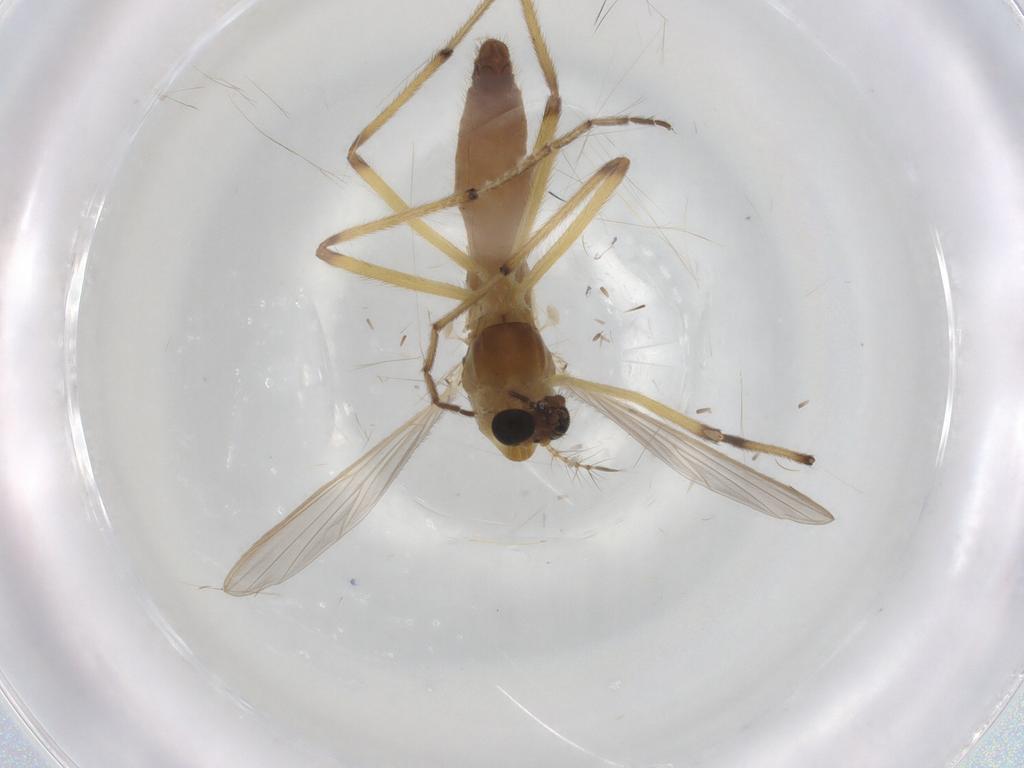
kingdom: Animalia
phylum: Arthropoda
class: Insecta
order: Diptera
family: Chironomidae
